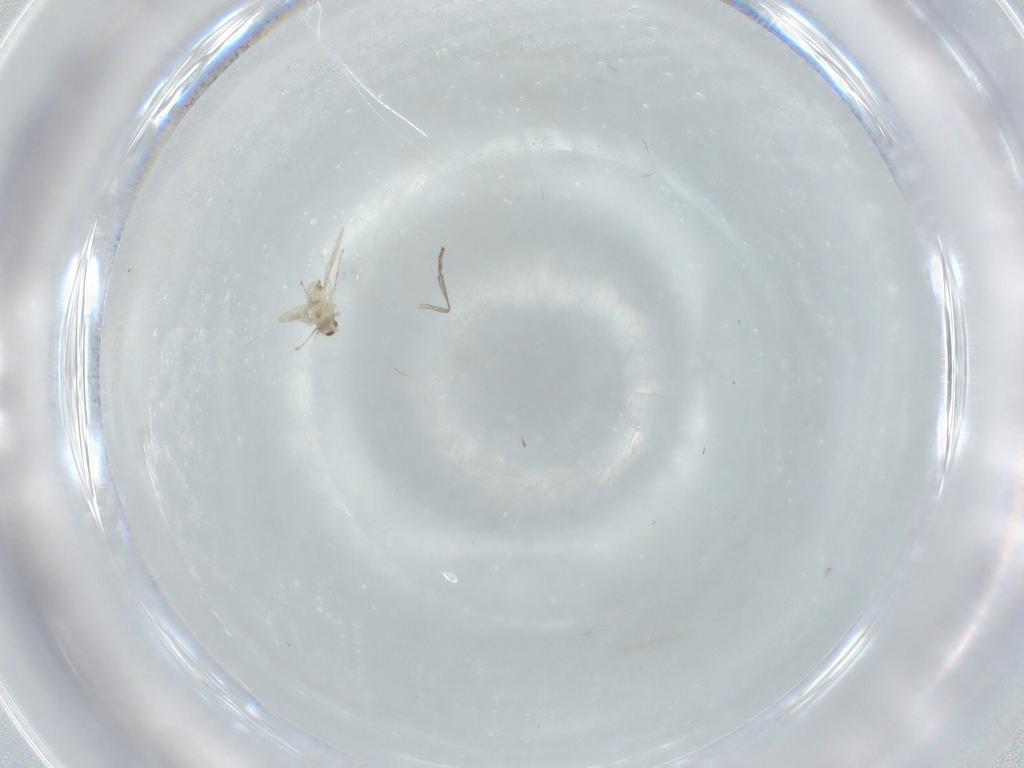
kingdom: Animalia
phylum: Arthropoda
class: Insecta
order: Diptera
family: Cecidomyiidae
